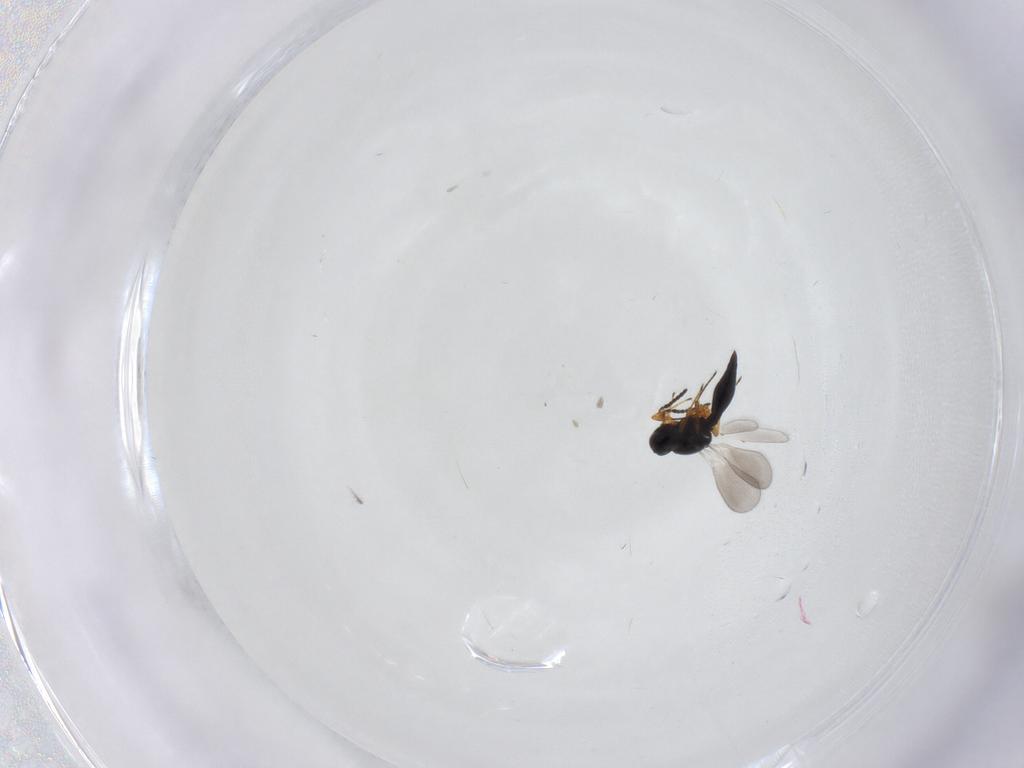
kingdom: Animalia
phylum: Arthropoda
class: Insecta
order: Hymenoptera
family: Platygastridae
